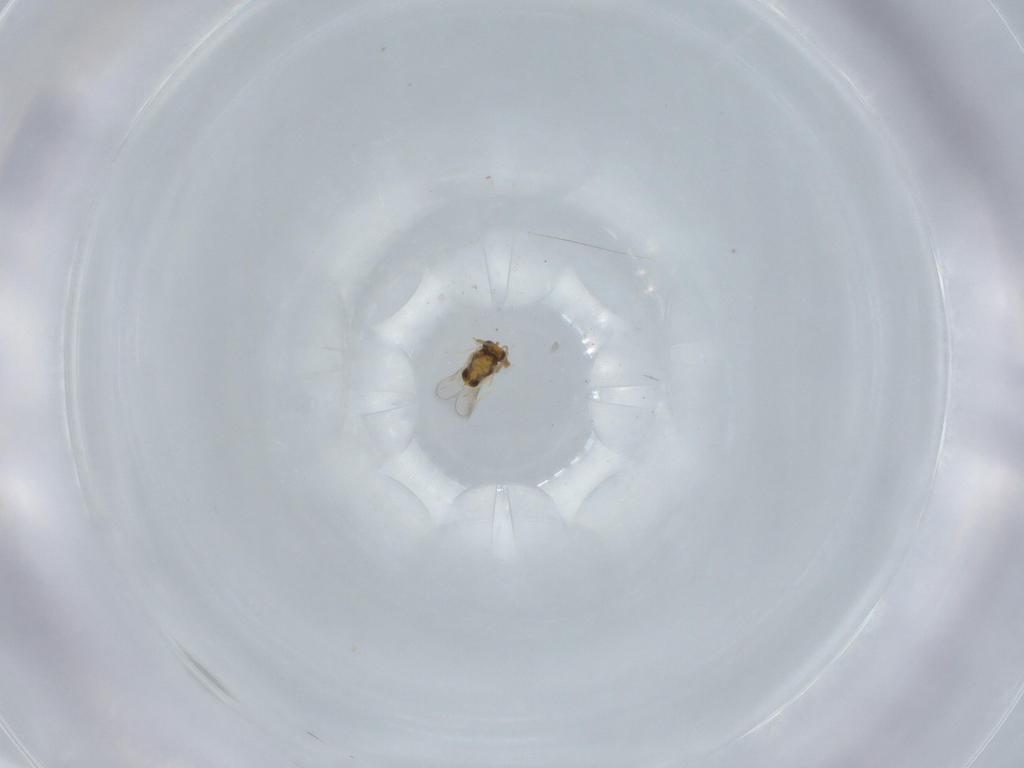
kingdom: Animalia
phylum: Arthropoda
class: Insecta
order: Hymenoptera
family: Aphelinidae
